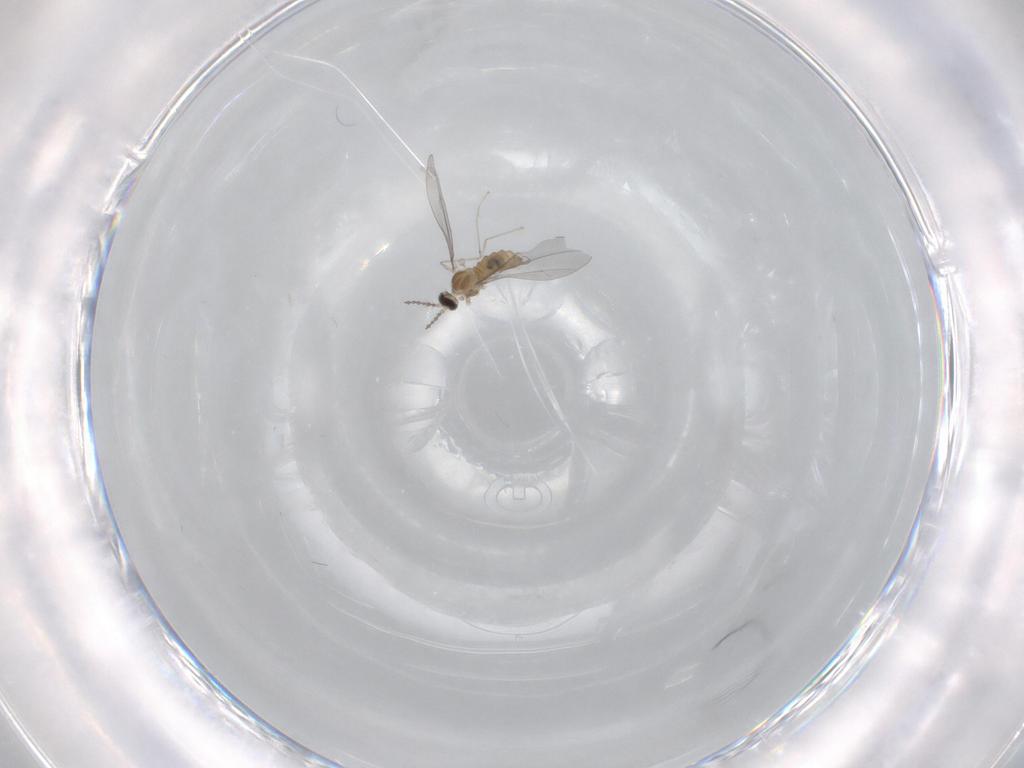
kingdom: Animalia
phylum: Arthropoda
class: Insecta
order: Diptera
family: Cecidomyiidae
